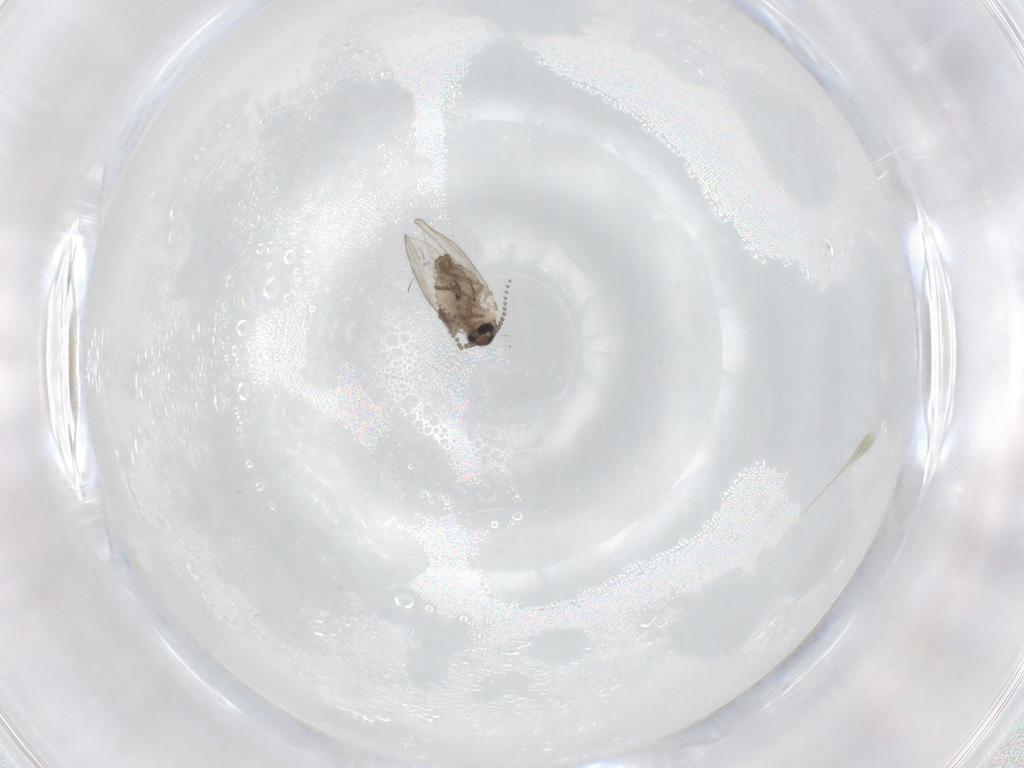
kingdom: Animalia
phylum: Arthropoda
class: Insecta
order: Diptera
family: Psychodidae
